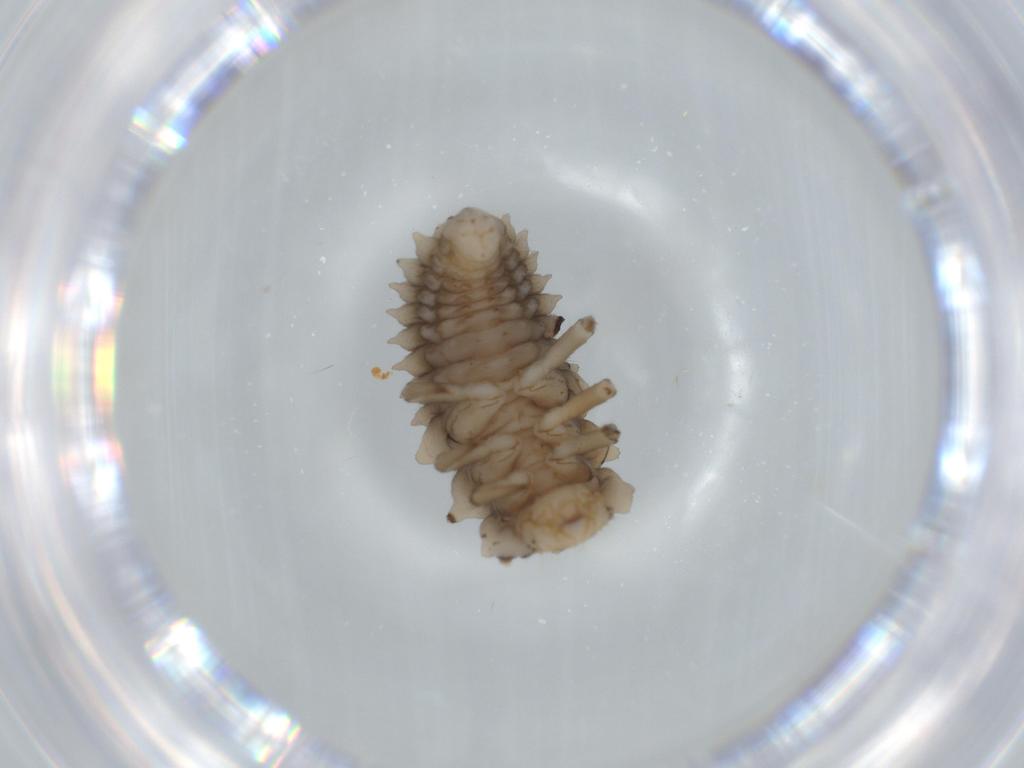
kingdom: Animalia
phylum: Arthropoda
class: Insecta
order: Coleoptera
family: Coccinellidae
